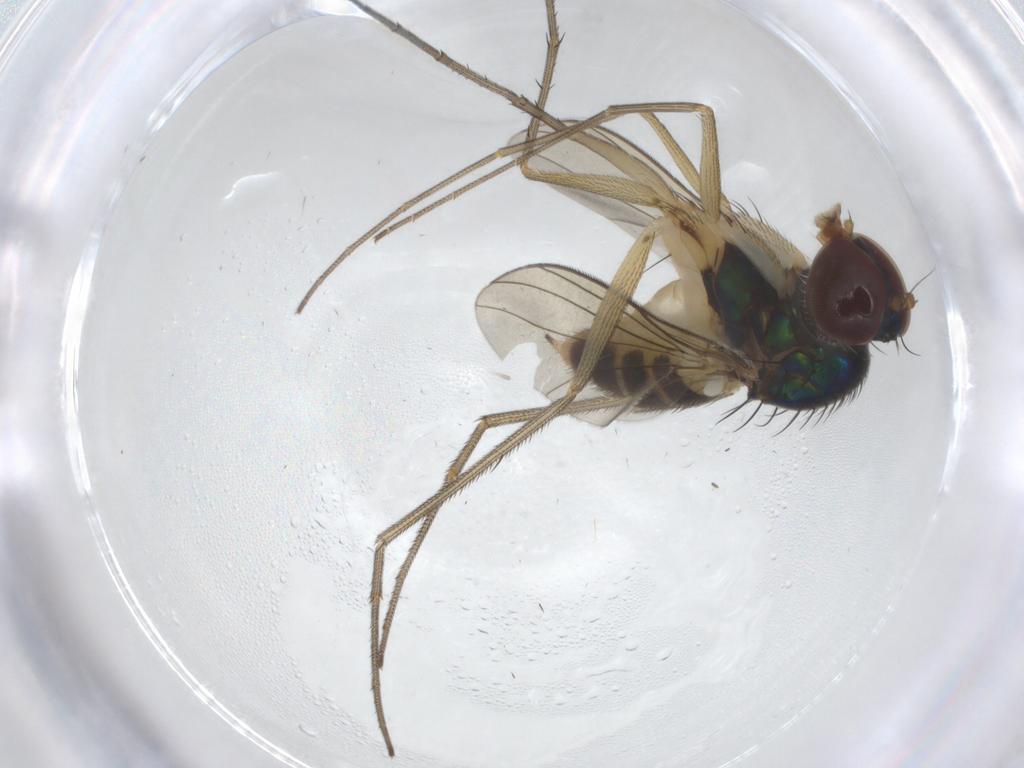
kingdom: Animalia
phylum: Arthropoda
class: Insecta
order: Diptera
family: Dolichopodidae
